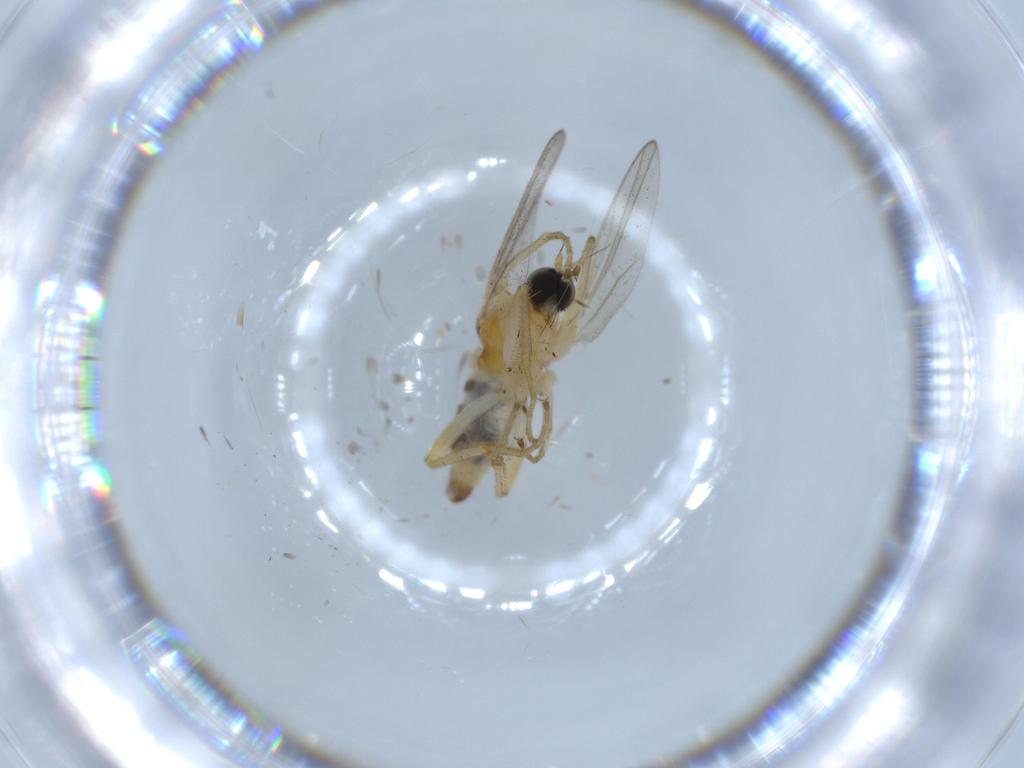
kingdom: Animalia
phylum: Arthropoda
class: Insecta
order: Diptera
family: Hybotidae
